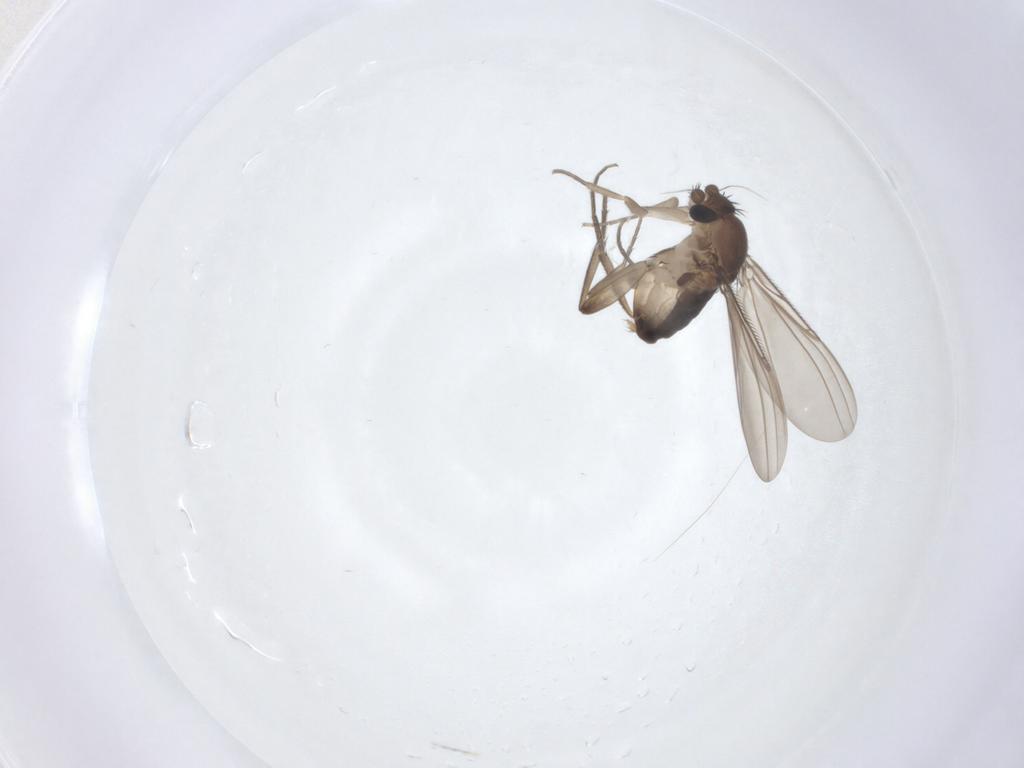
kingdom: Animalia
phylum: Arthropoda
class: Insecta
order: Diptera
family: Phoridae
